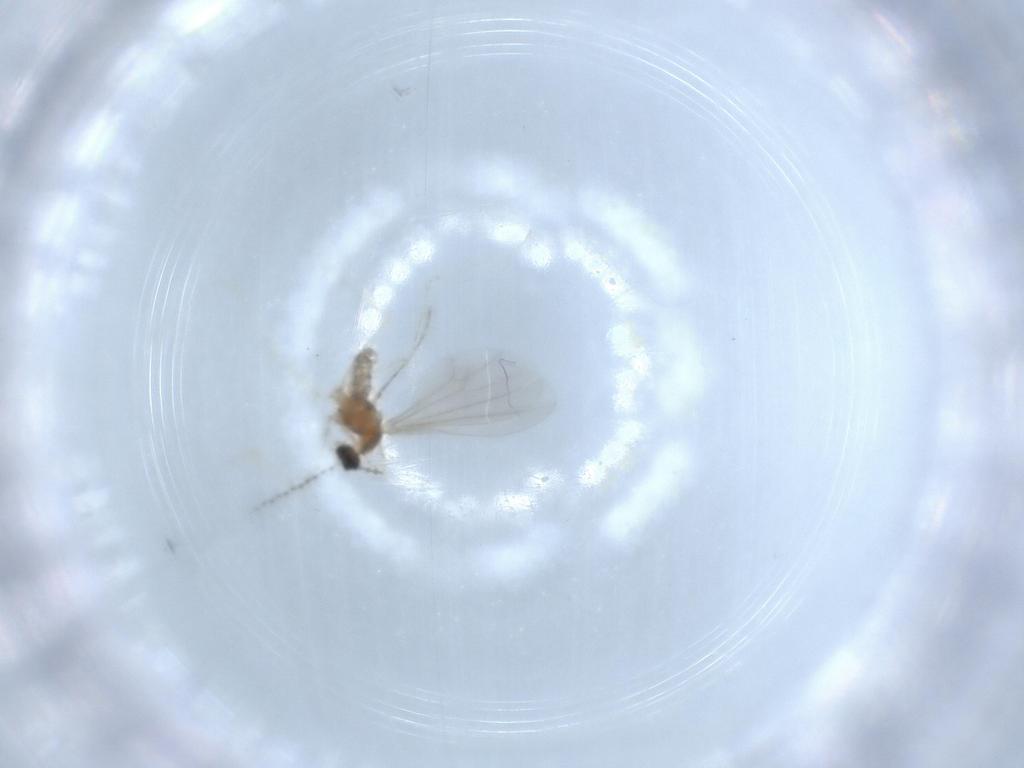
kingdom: Animalia
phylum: Arthropoda
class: Insecta
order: Diptera
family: Cecidomyiidae
